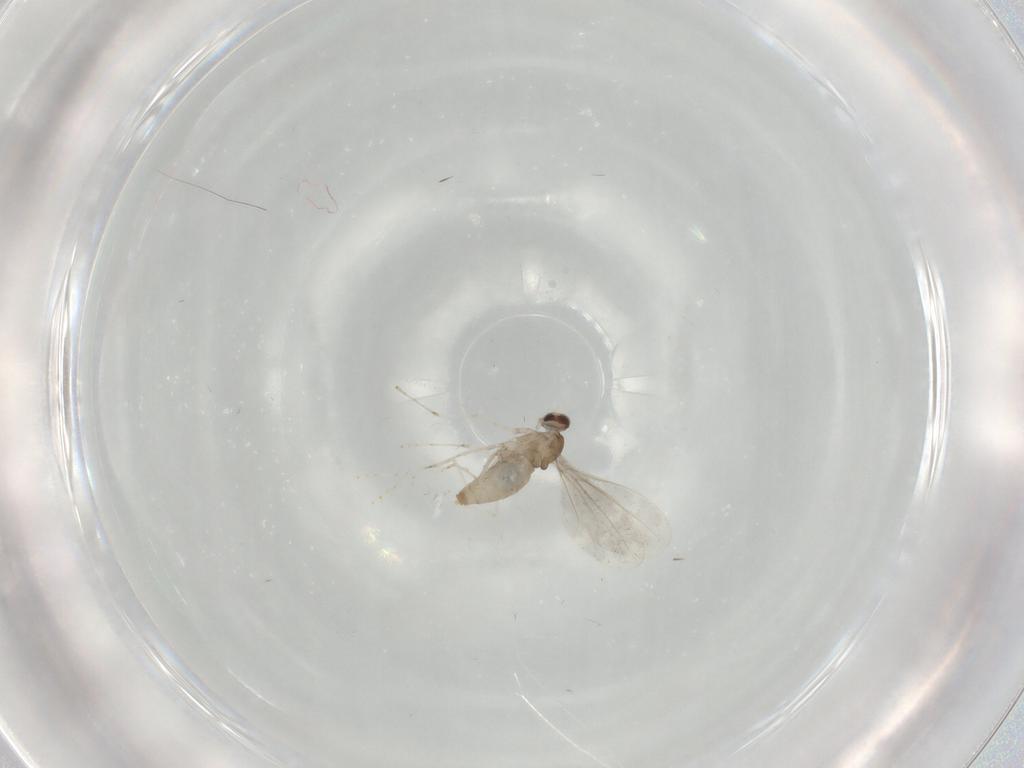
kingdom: Animalia
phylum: Arthropoda
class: Insecta
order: Diptera
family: Cecidomyiidae
